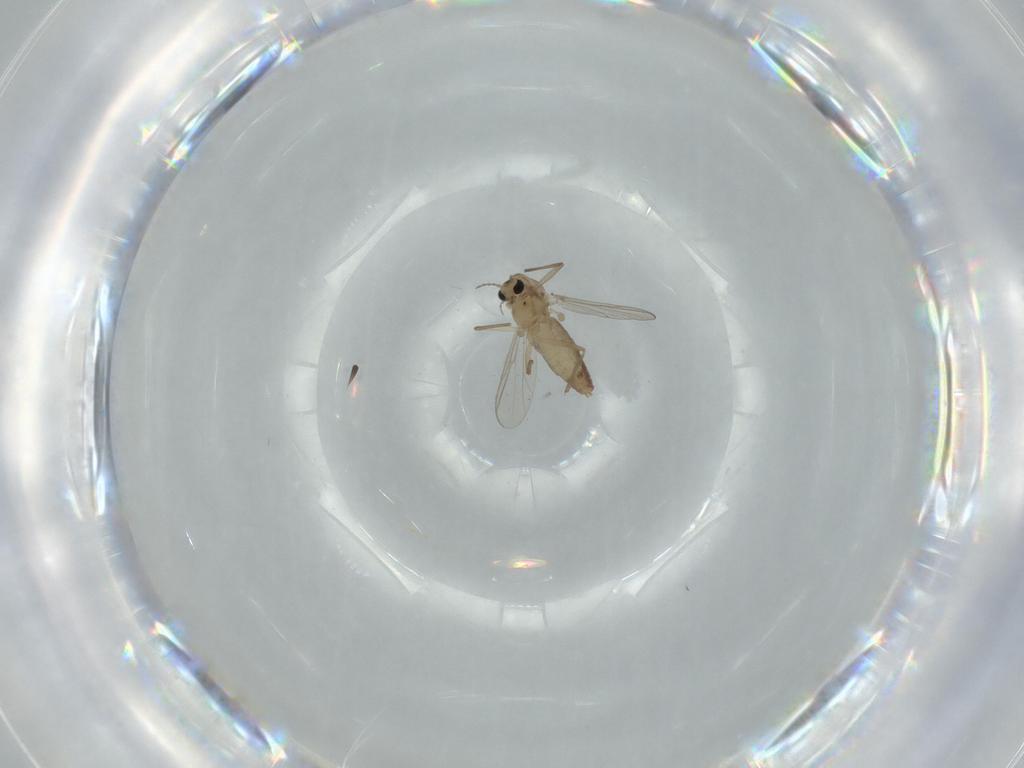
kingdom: Animalia
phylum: Arthropoda
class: Insecta
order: Diptera
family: Chironomidae
